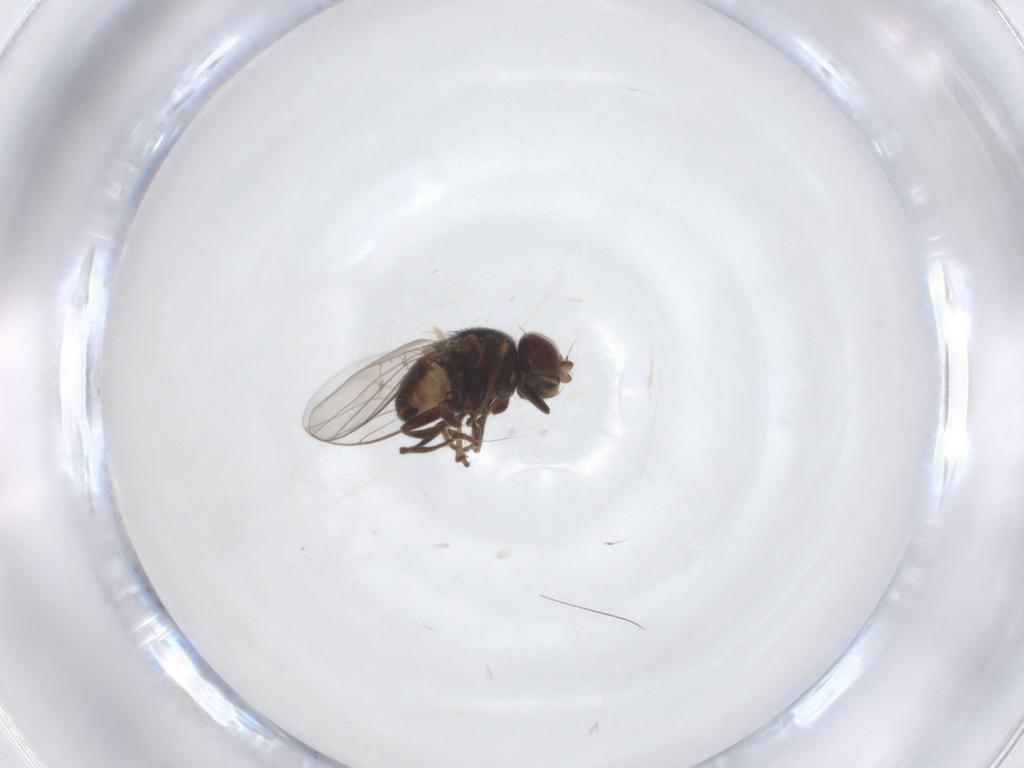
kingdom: Animalia
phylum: Arthropoda
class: Insecta
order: Diptera
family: Chloropidae
